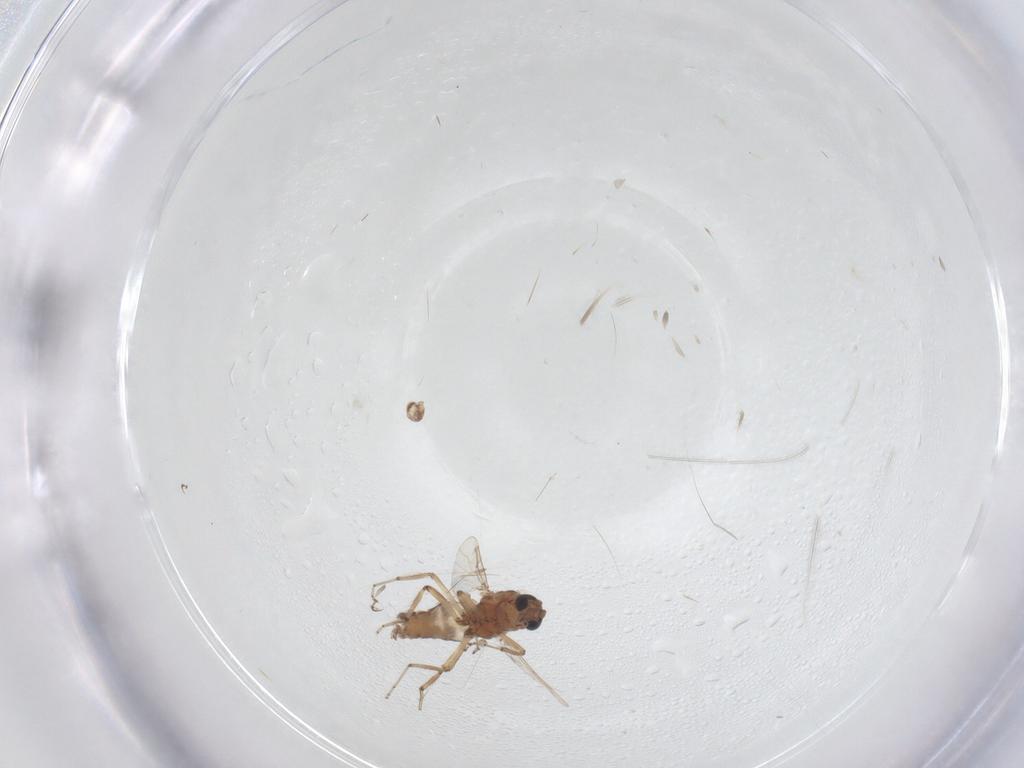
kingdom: Animalia
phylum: Arthropoda
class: Insecta
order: Diptera
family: Ceratopogonidae
